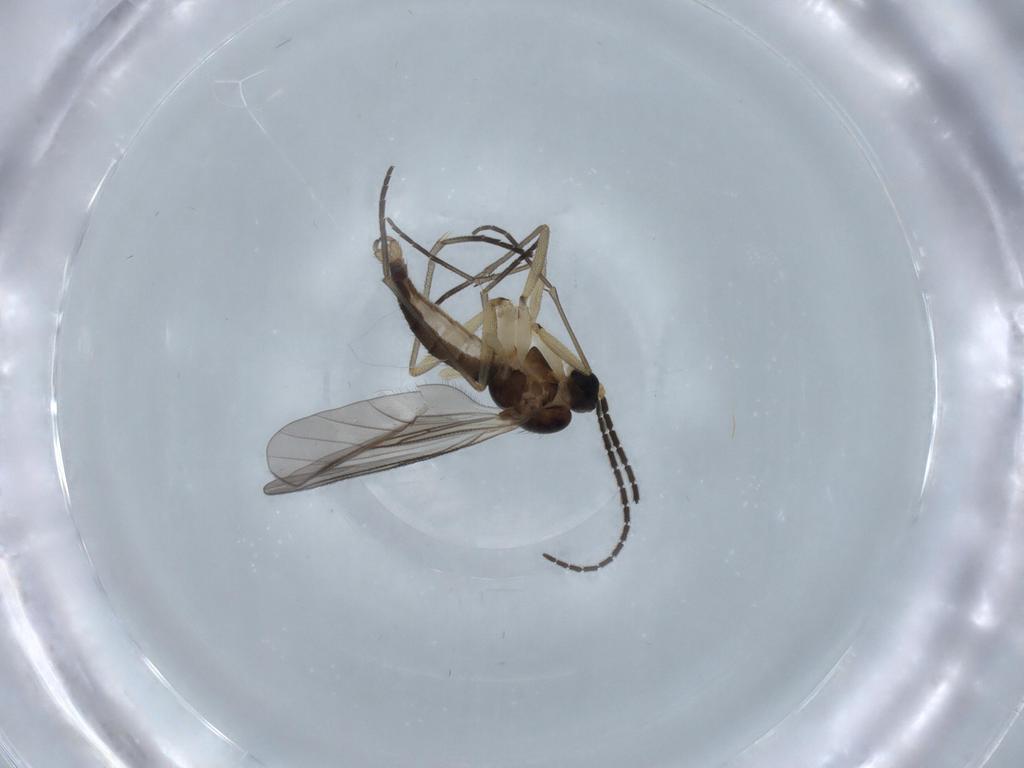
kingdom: Animalia
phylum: Arthropoda
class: Insecta
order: Diptera
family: Sciaridae
